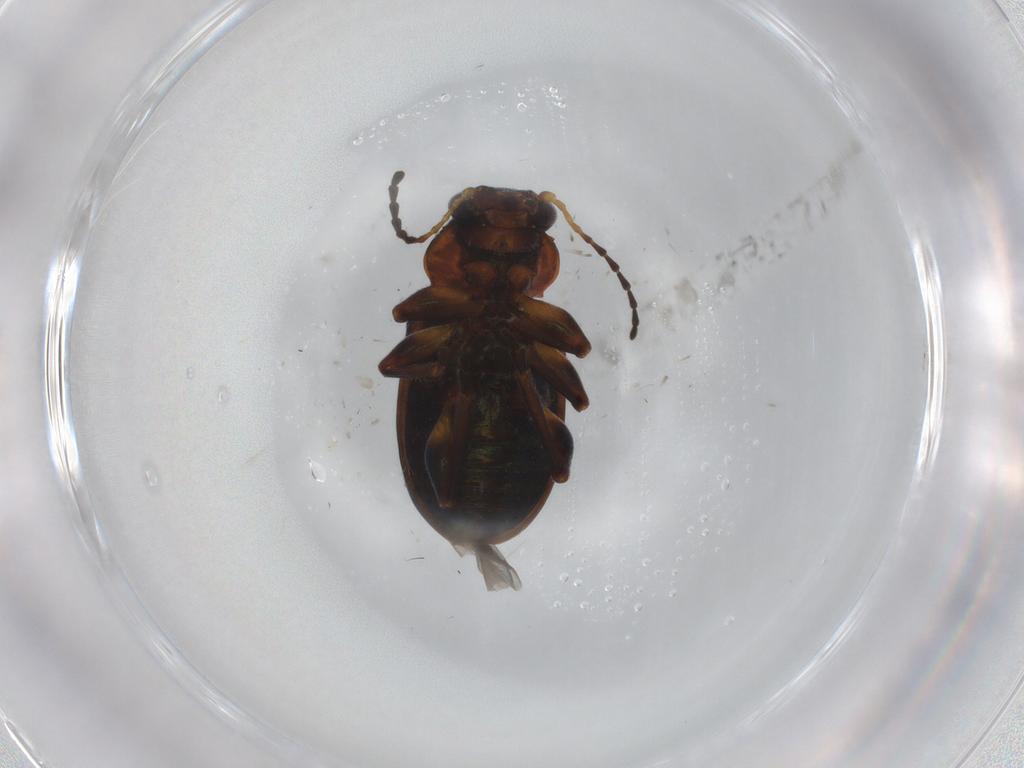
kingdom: Animalia
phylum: Arthropoda
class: Insecta
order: Coleoptera
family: Chrysomelidae
